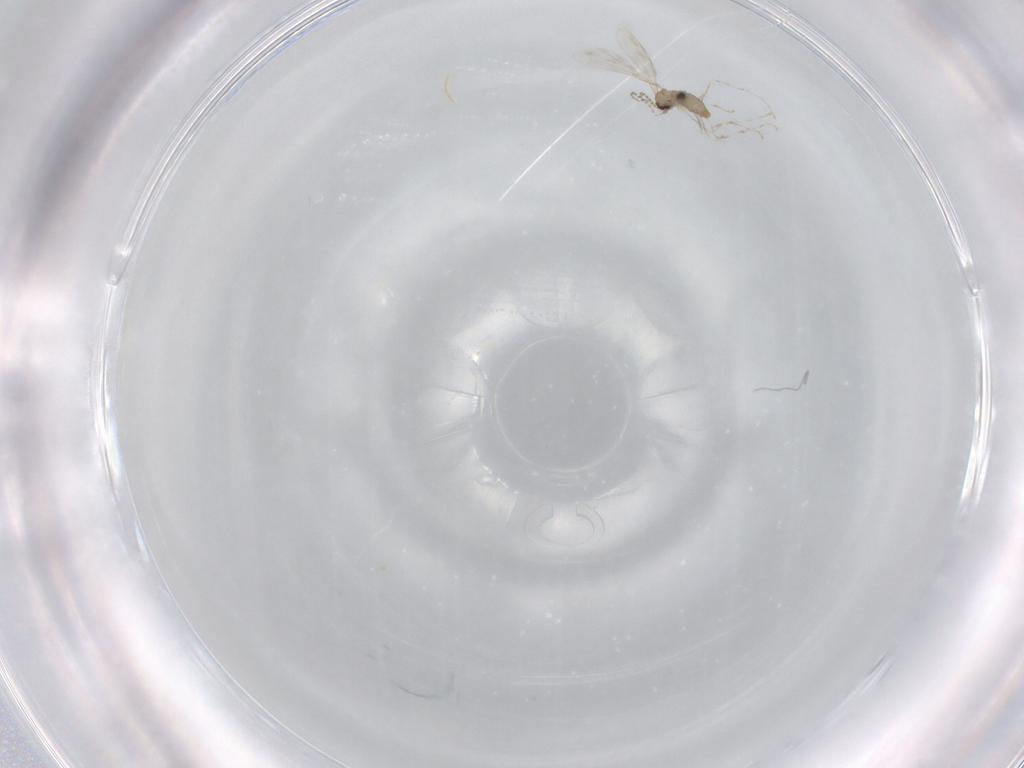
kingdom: Animalia
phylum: Arthropoda
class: Insecta
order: Diptera
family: Cecidomyiidae
